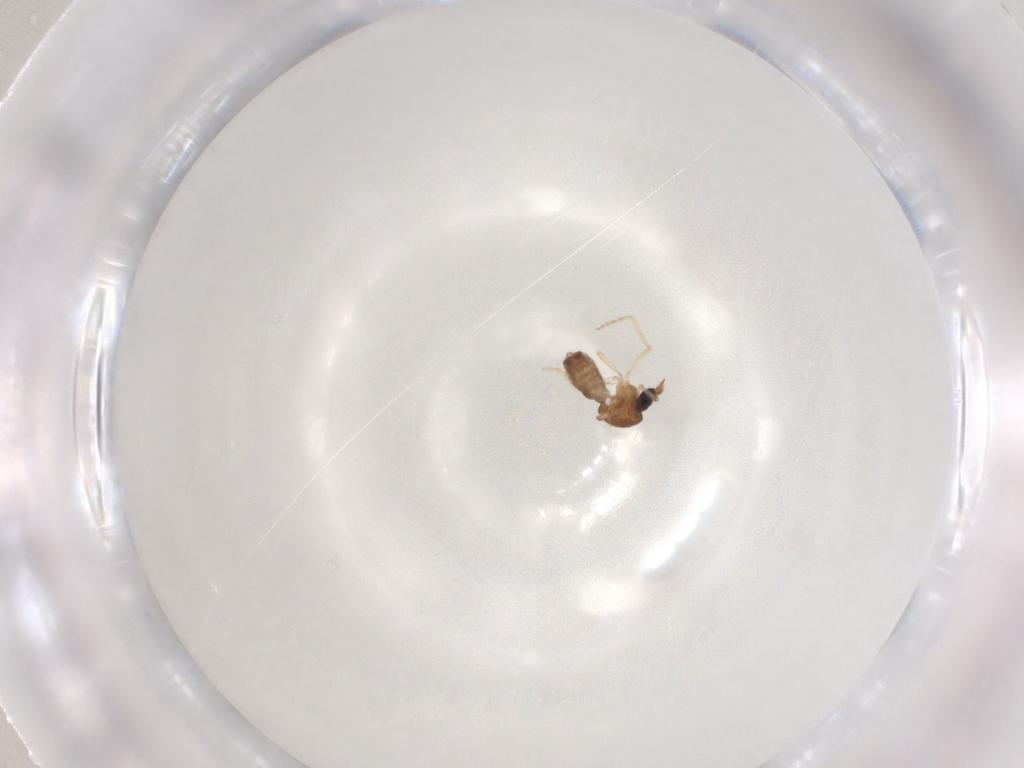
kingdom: Animalia
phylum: Arthropoda
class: Insecta
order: Diptera
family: Ceratopogonidae
